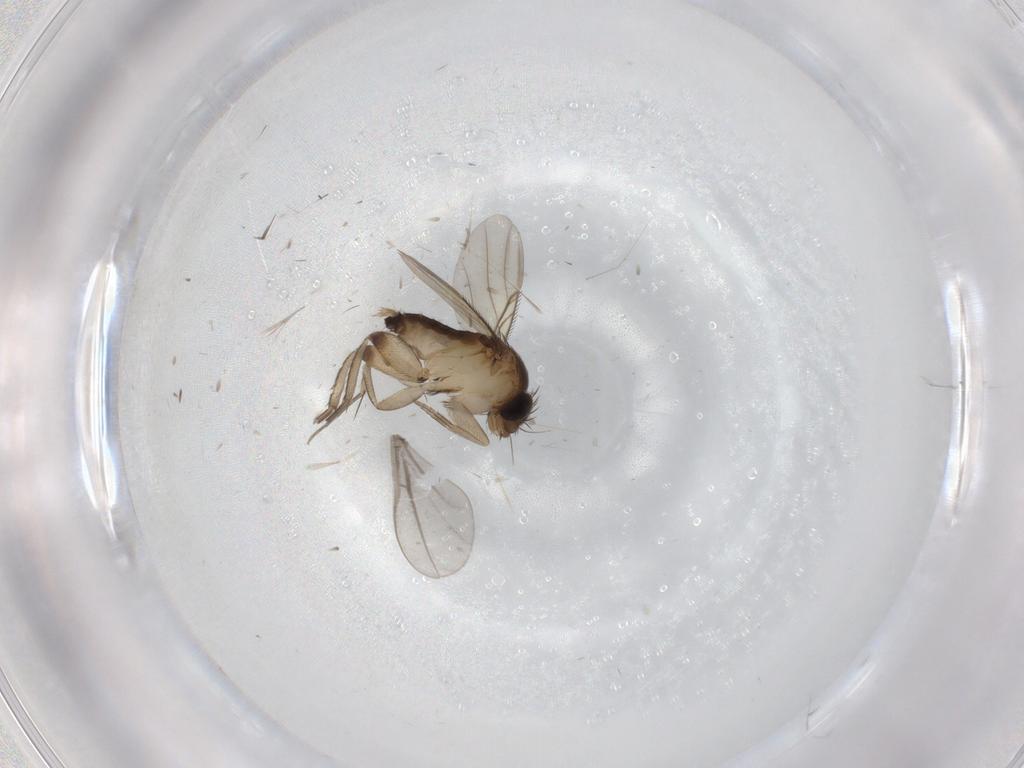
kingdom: Animalia
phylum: Arthropoda
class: Insecta
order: Diptera
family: Phoridae
